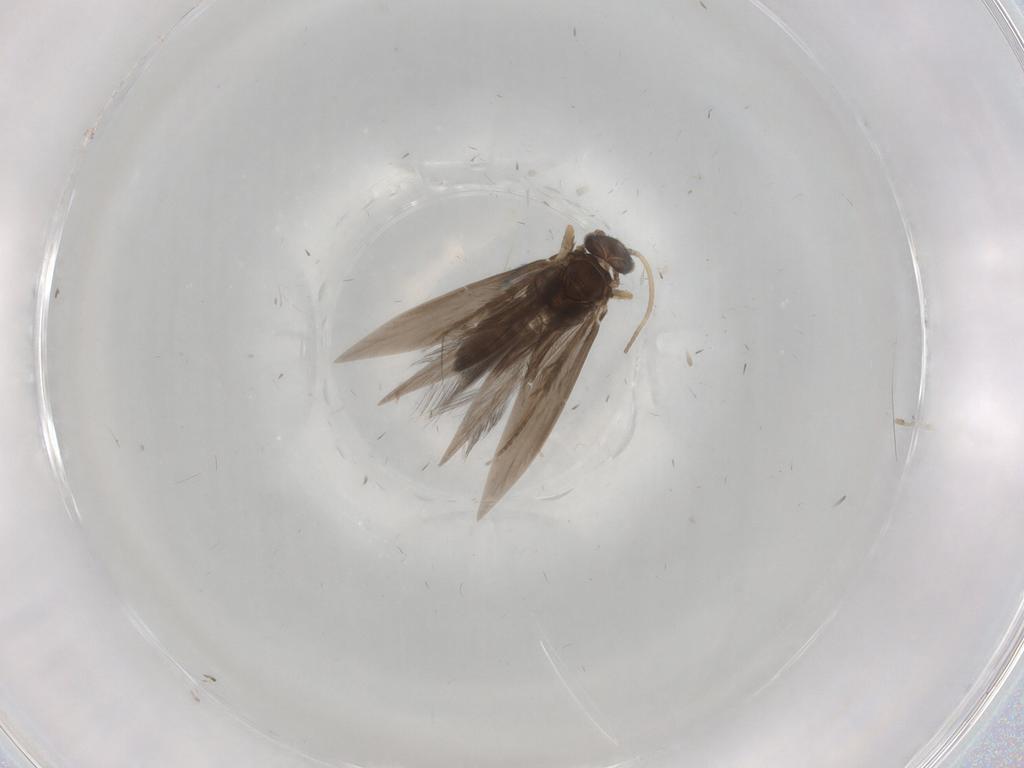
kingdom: Animalia
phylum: Arthropoda
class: Insecta
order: Trichoptera
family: Hydroptilidae
